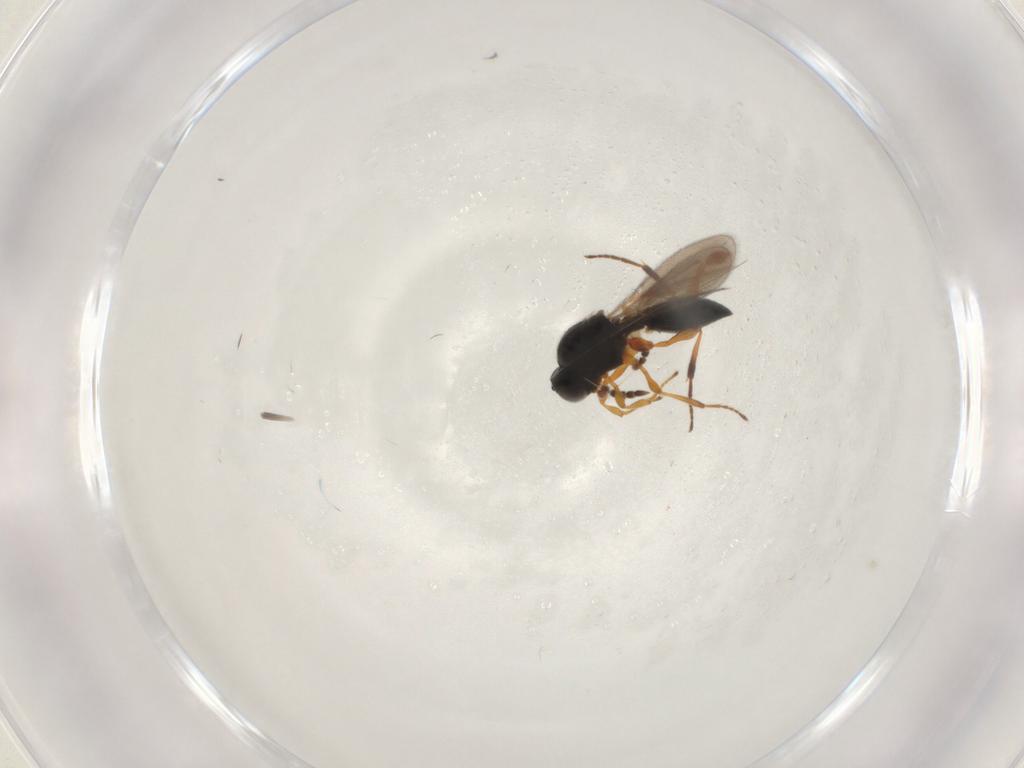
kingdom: Animalia
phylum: Arthropoda
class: Insecta
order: Hymenoptera
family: Platygastridae
